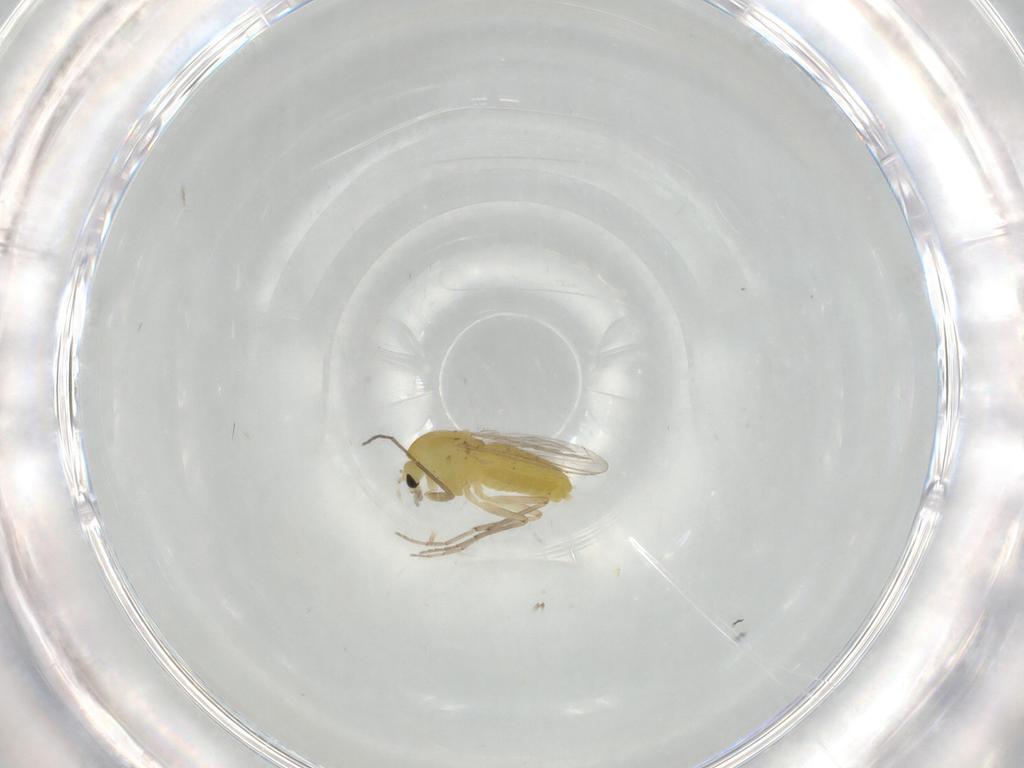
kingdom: Animalia
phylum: Arthropoda
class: Insecta
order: Diptera
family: Chironomidae
